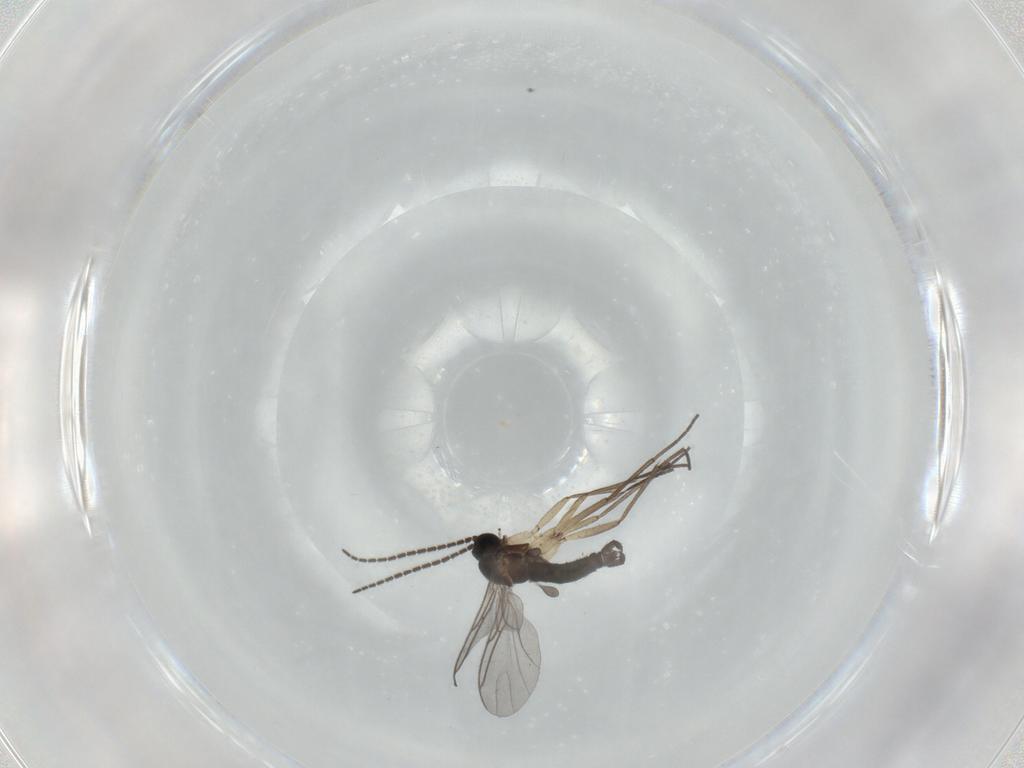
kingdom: Animalia
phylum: Arthropoda
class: Insecta
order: Diptera
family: Sciaridae
